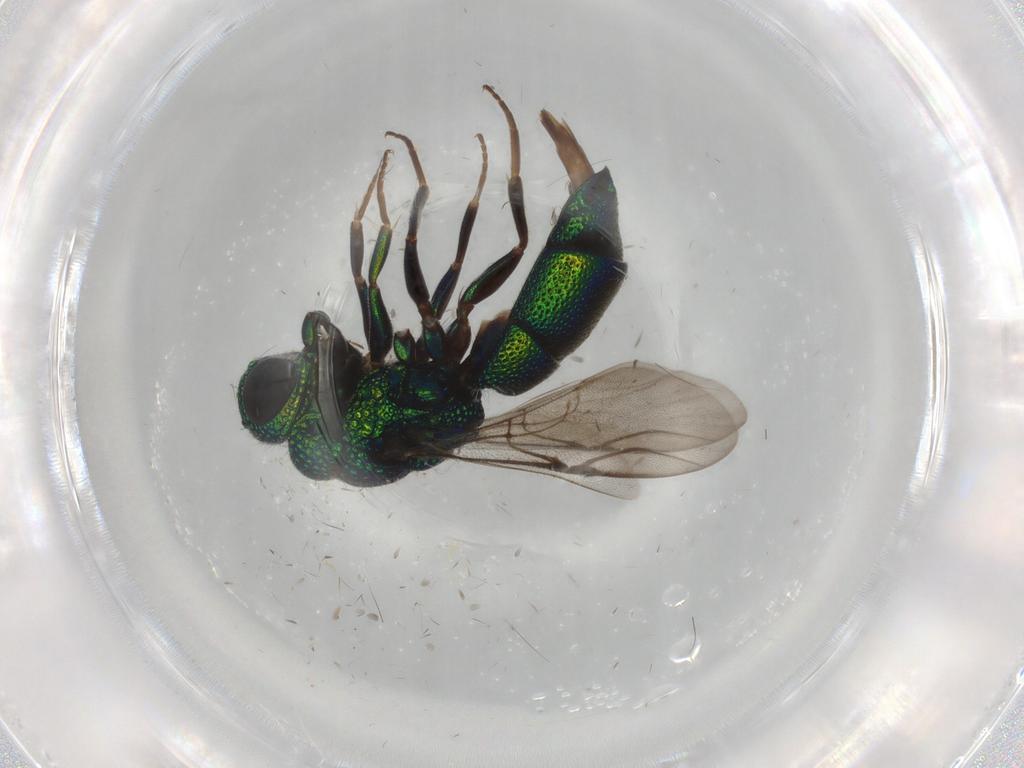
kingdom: Animalia
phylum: Arthropoda
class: Insecta
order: Hymenoptera
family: Chrysididae
